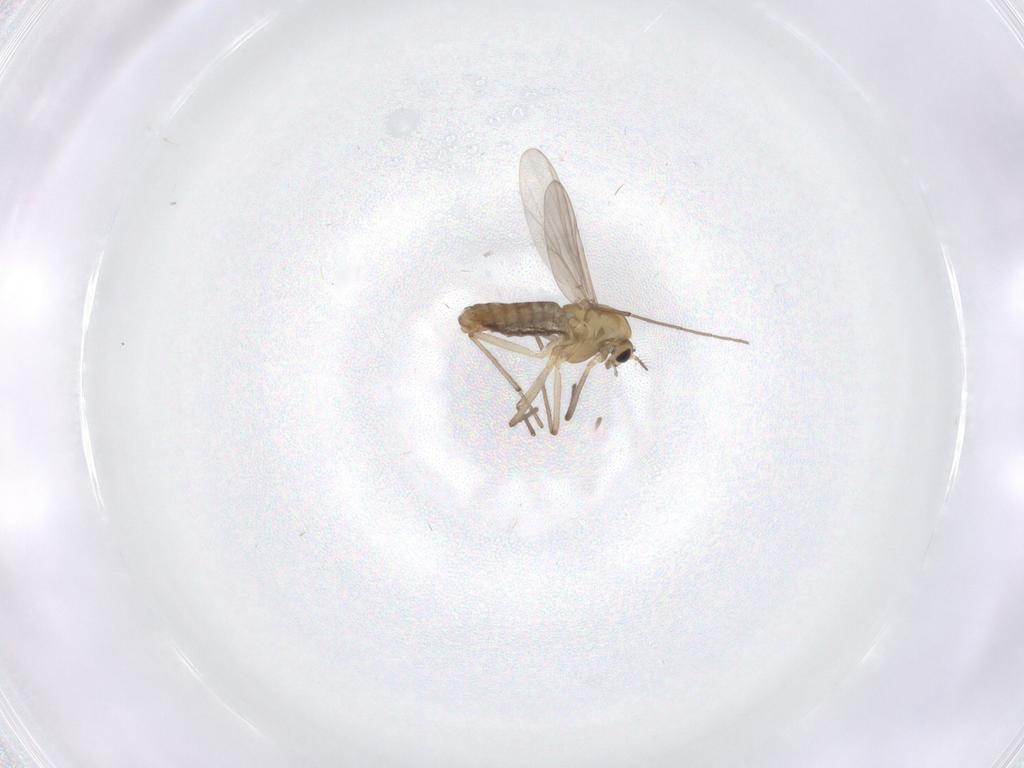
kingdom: Animalia
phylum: Arthropoda
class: Insecta
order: Diptera
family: Chironomidae
